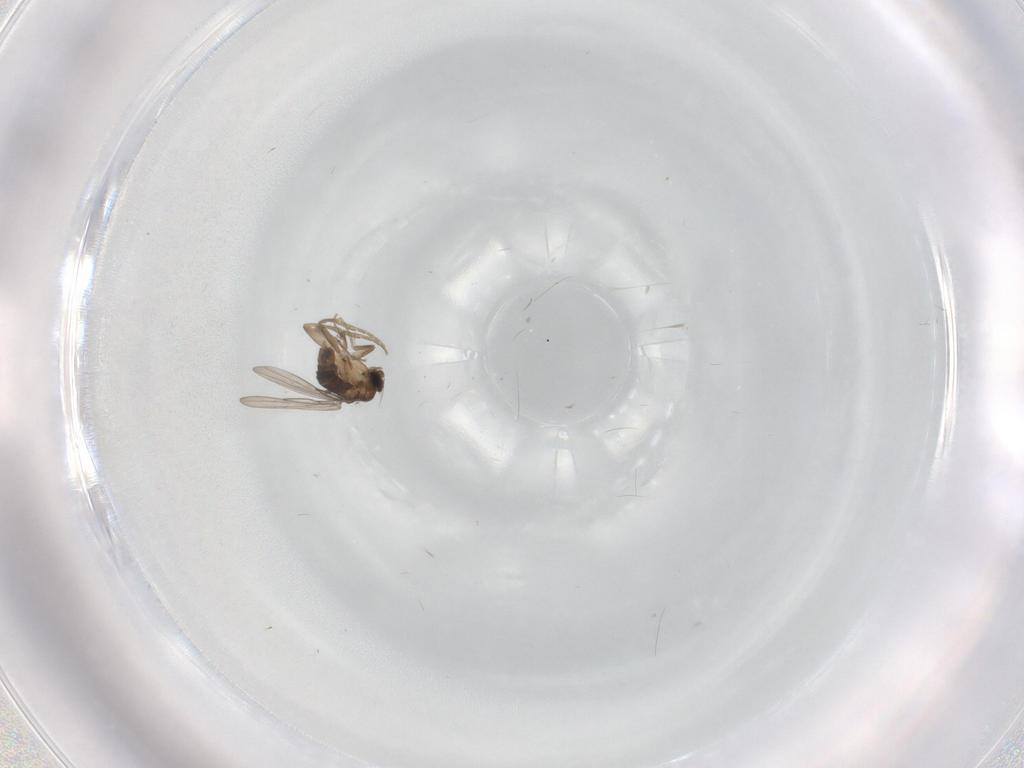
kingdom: Animalia
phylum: Arthropoda
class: Insecta
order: Diptera
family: Phoridae
